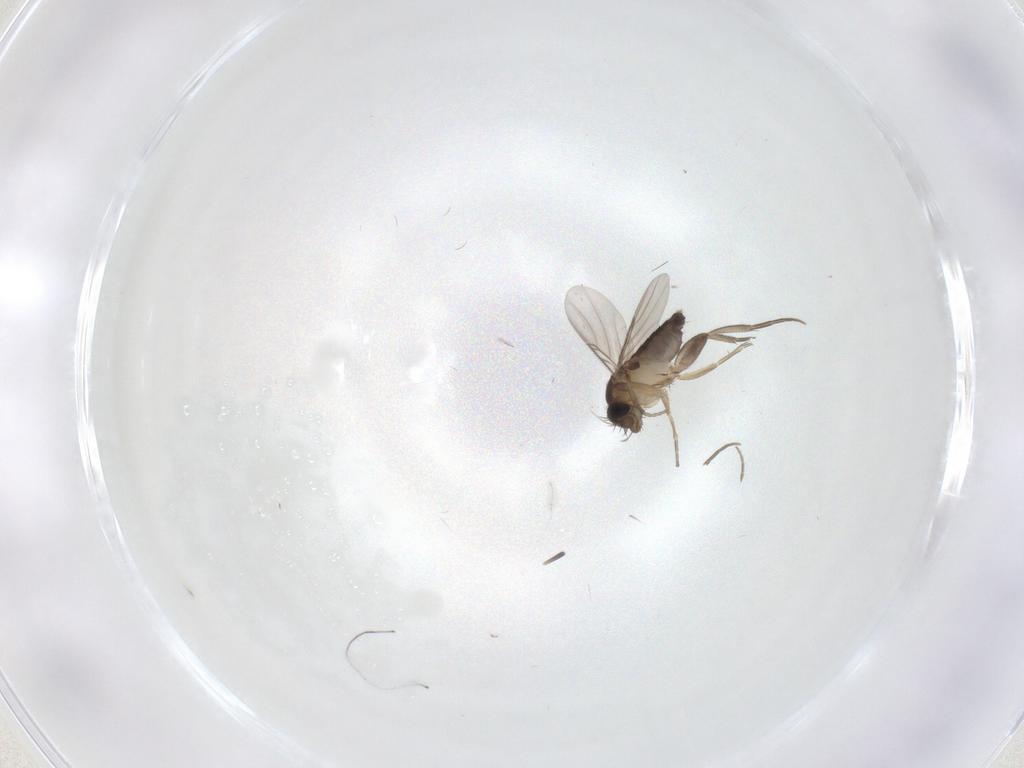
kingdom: Animalia
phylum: Arthropoda
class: Insecta
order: Diptera
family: Phoridae
